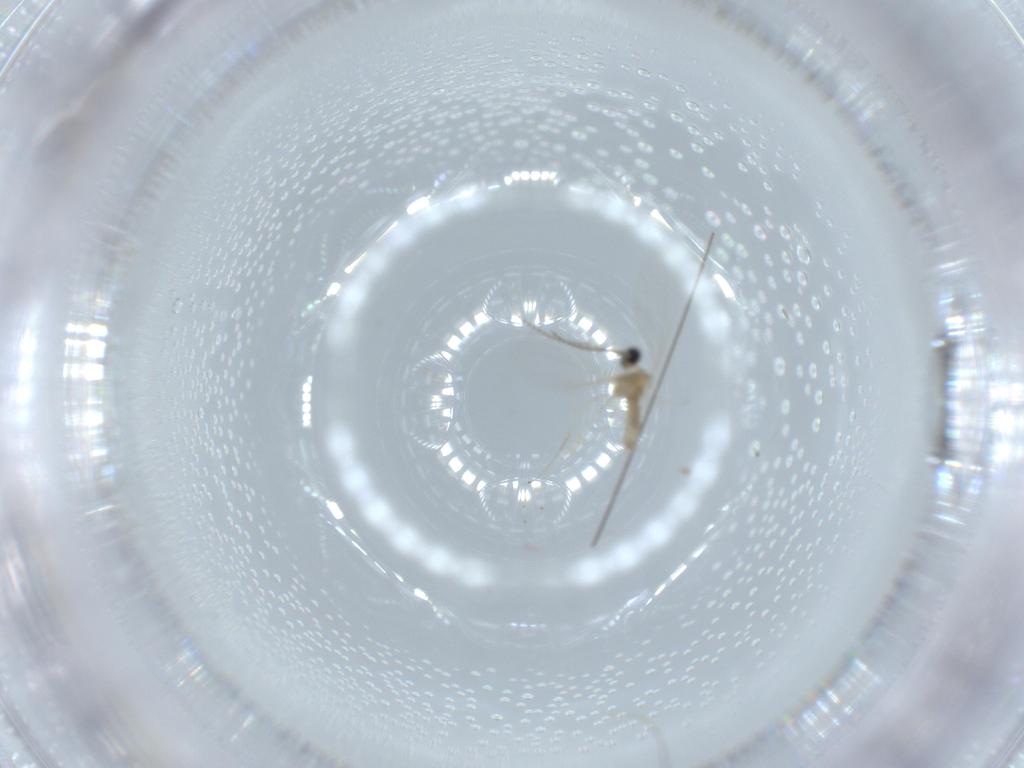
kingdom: Animalia
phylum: Arthropoda
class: Insecta
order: Diptera
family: Cecidomyiidae
